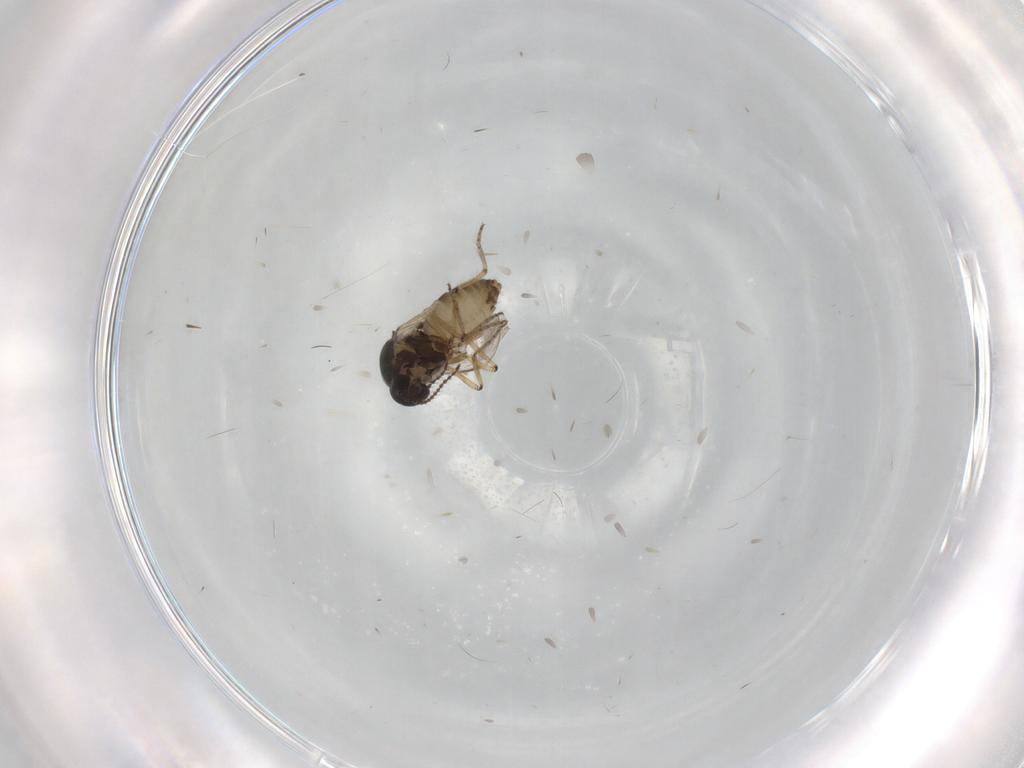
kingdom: Animalia
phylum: Arthropoda
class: Insecta
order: Diptera
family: Ceratopogonidae
